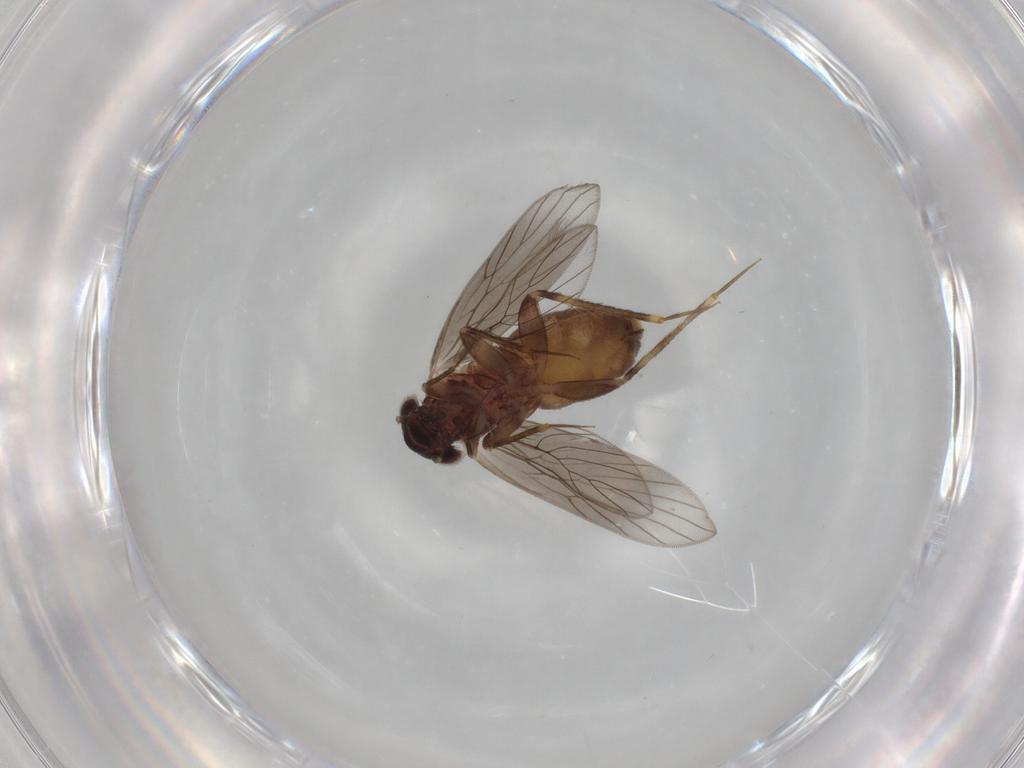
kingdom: Animalia
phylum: Arthropoda
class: Insecta
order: Psocodea
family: Lepidopsocidae
